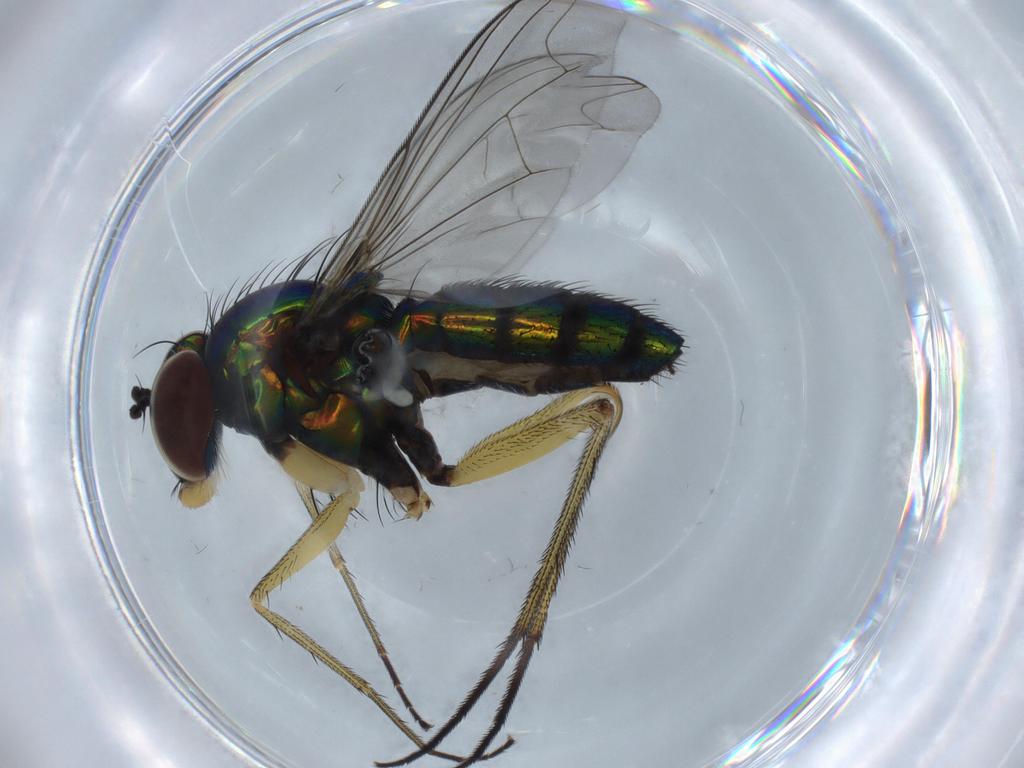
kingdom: Animalia
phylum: Arthropoda
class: Insecta
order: Diptera
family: Dolichopodidae
